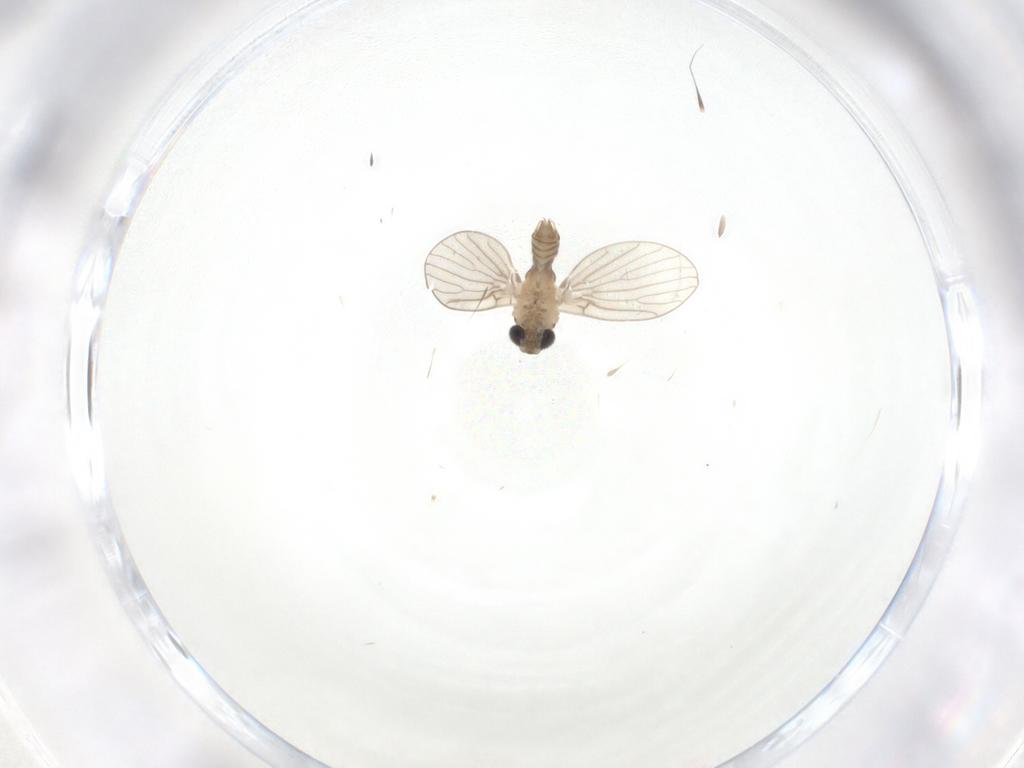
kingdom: Animalia
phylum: Arthropoda
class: Insecta
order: Diptera
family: Psychodidae
